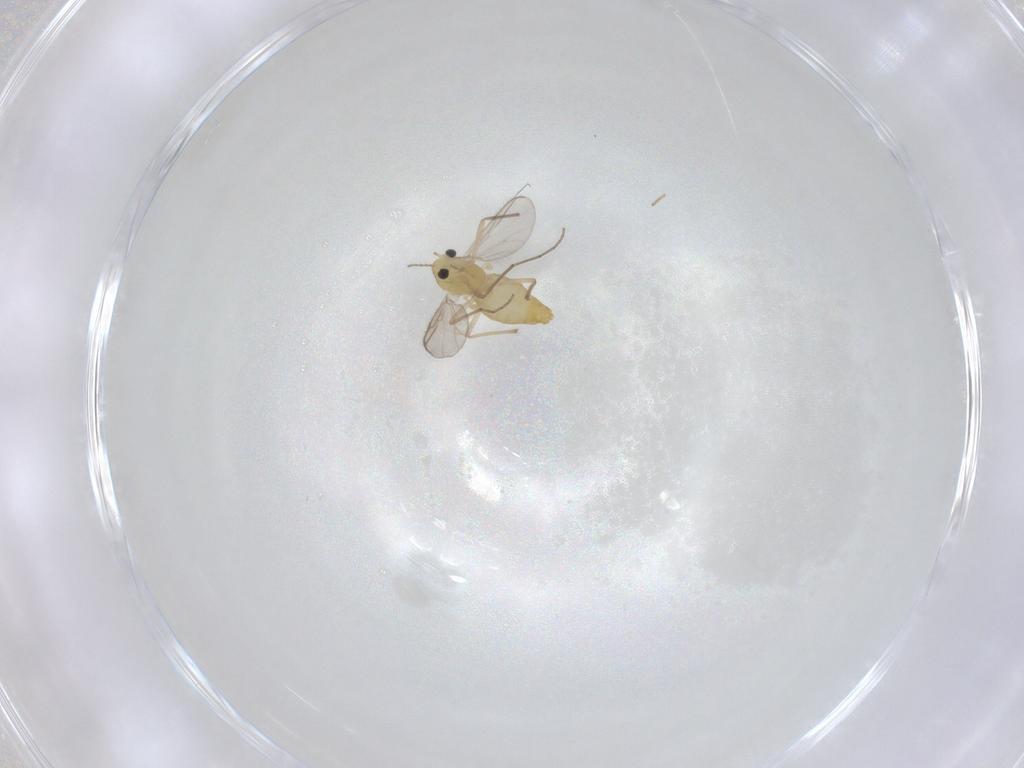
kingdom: Animalia
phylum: Arthropoda
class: Insecta
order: Diptera
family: Chironomidae
